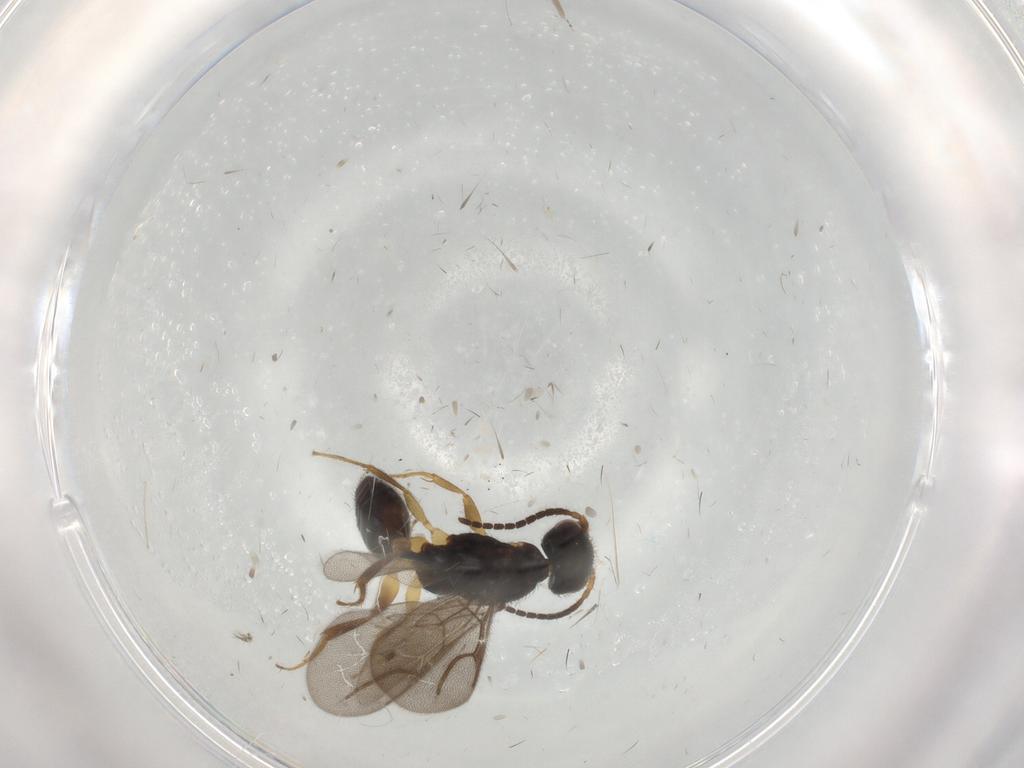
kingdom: Animalia
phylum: Arthropoda
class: Insecta
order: Hymenoptera
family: Bethylidae
